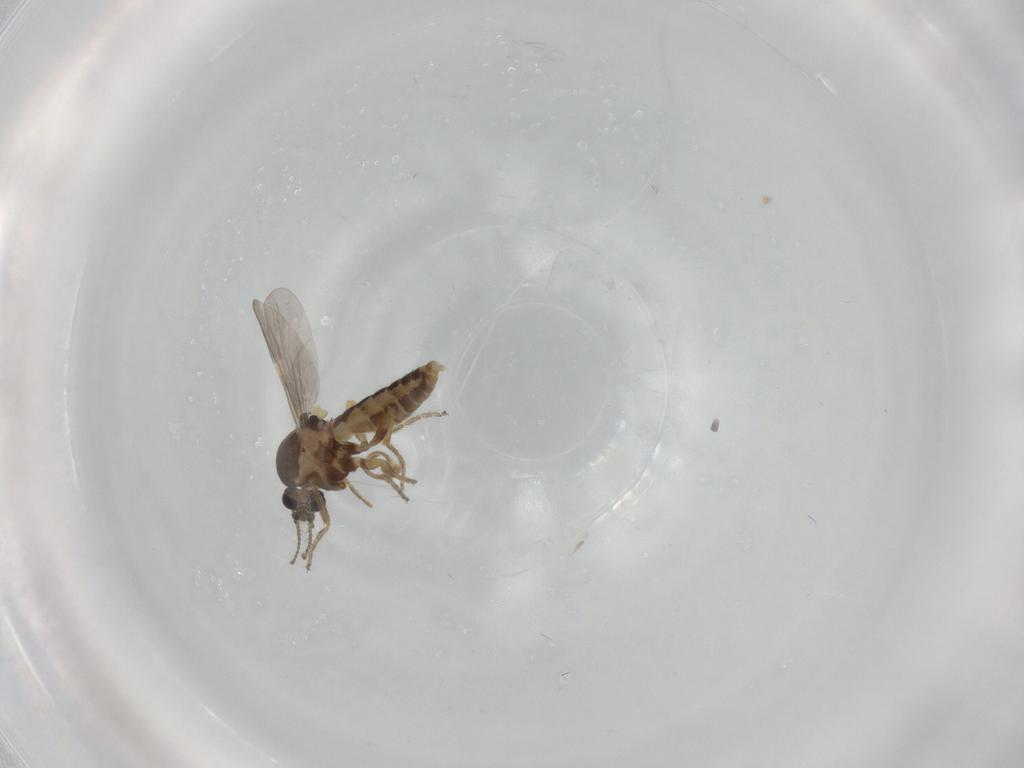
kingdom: Animalia
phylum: Arthropoda
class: Insecta
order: Diptera
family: Ceratopogonidae
